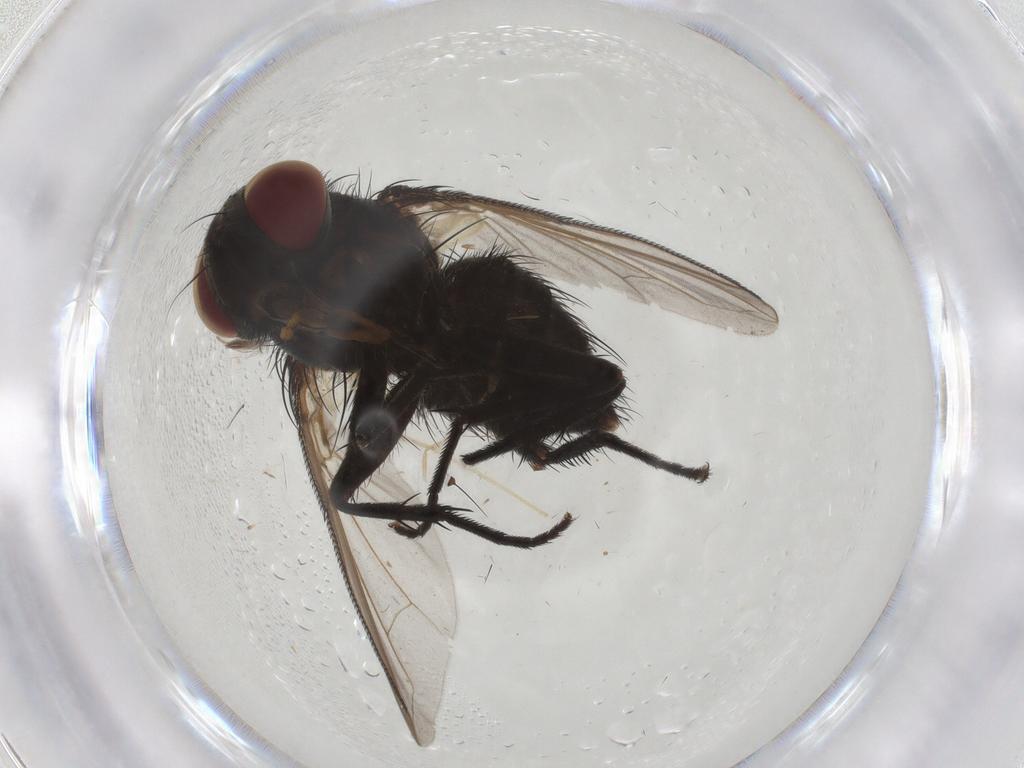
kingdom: Animalia
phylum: Arthropoda
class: Insecta
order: Diptera
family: Tachinidae
